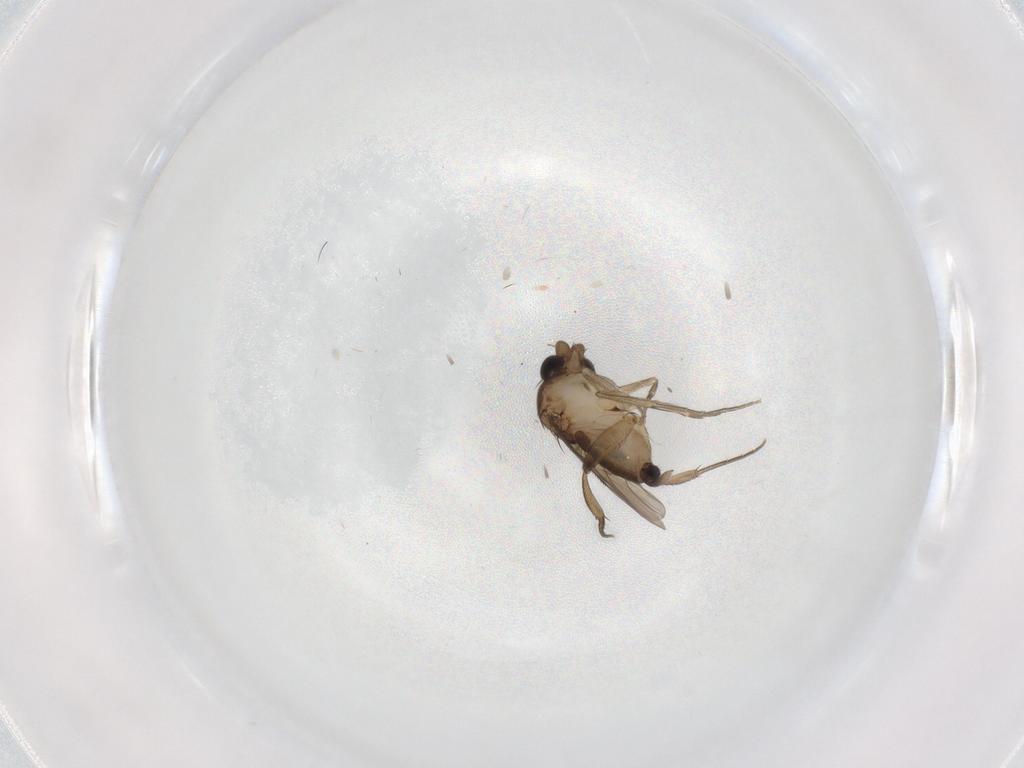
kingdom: Animalia
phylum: Arthropoda
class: Insecta
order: Diptera
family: Phoridae
